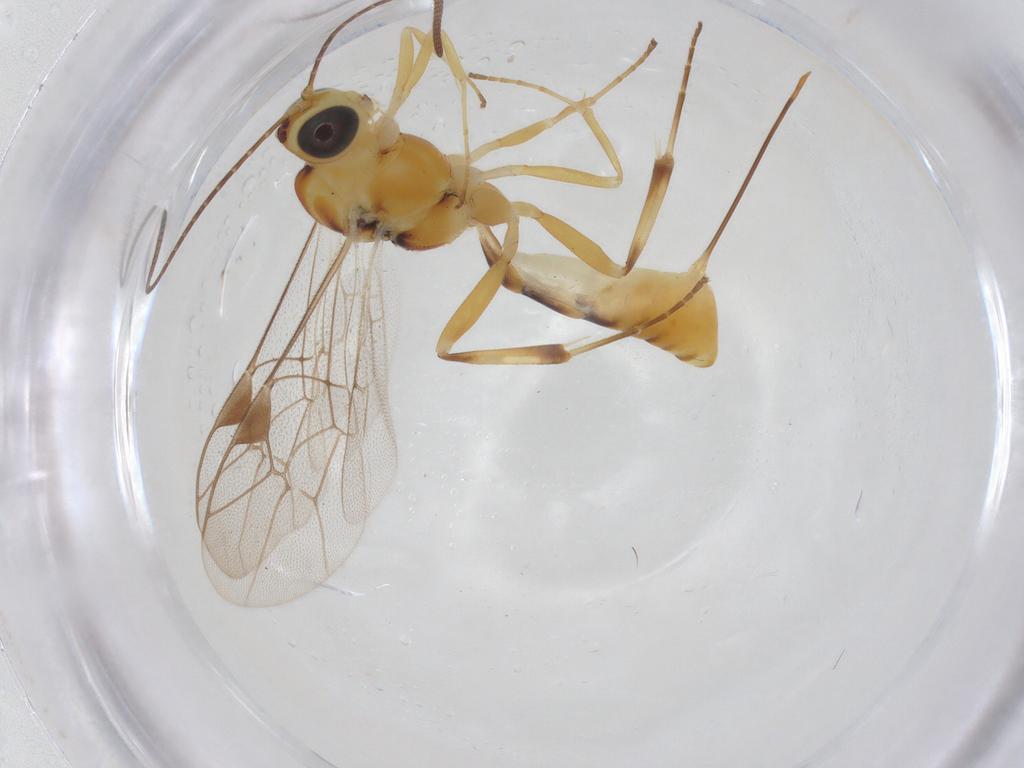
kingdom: Animalia
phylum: Arthropoda
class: Insecta
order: Hymenoptera
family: Ichneumonidae
